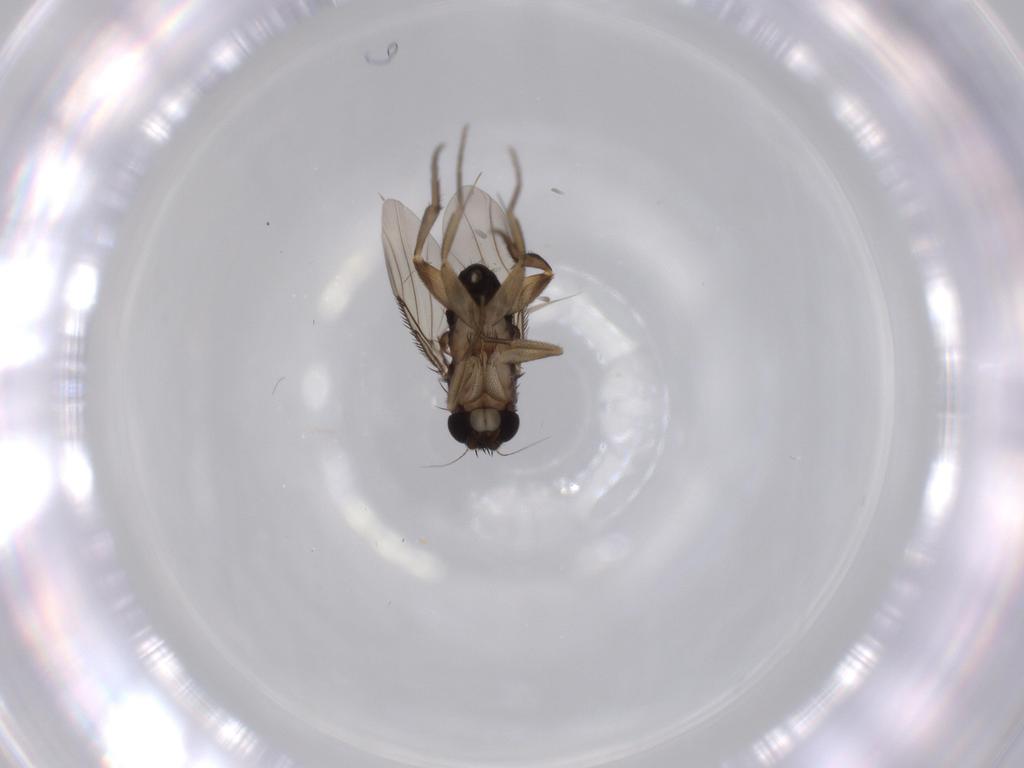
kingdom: Animalia
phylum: Arthropoda
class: Insecta
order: Diptera
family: Phoridae
